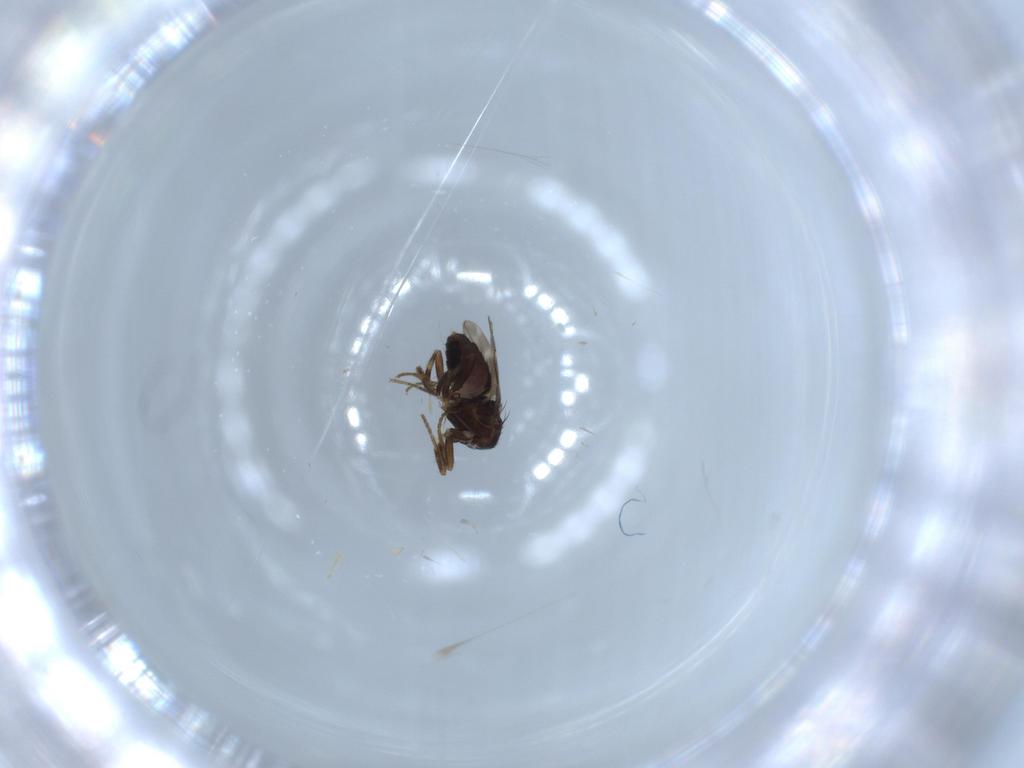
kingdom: Animalia
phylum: Arthropoda
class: Insecta
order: Diptera
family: Sphaeroceridae
